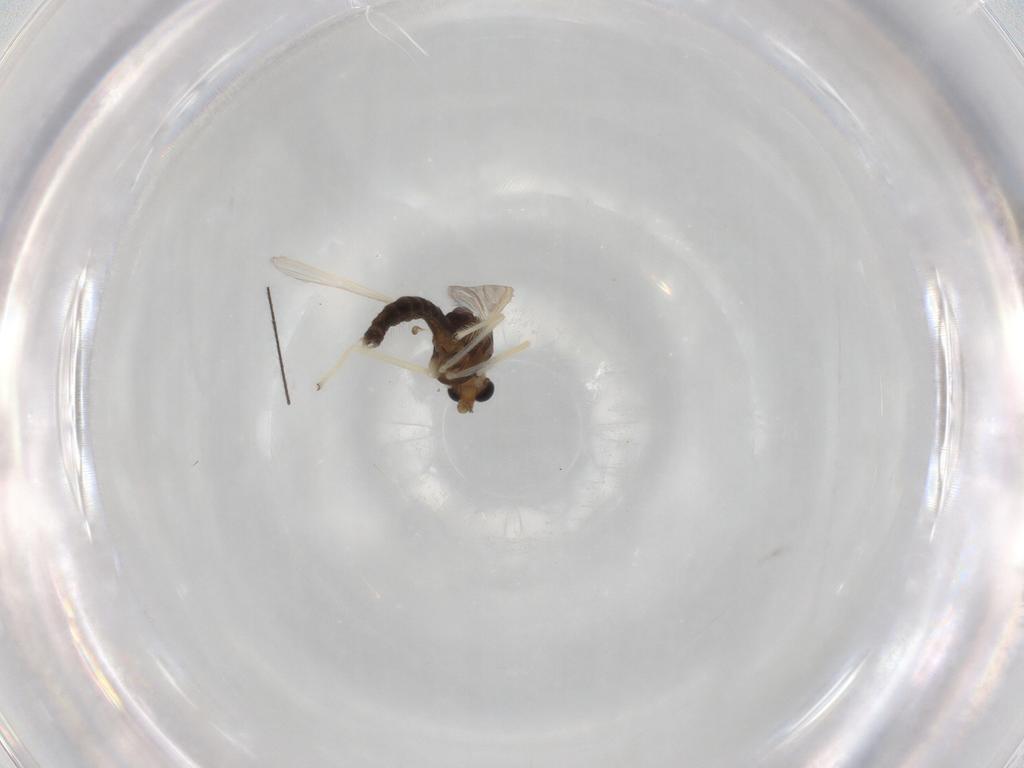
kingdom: Animalia
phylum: Arthropoda
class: Insecta
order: Diptera
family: Chironomidae
